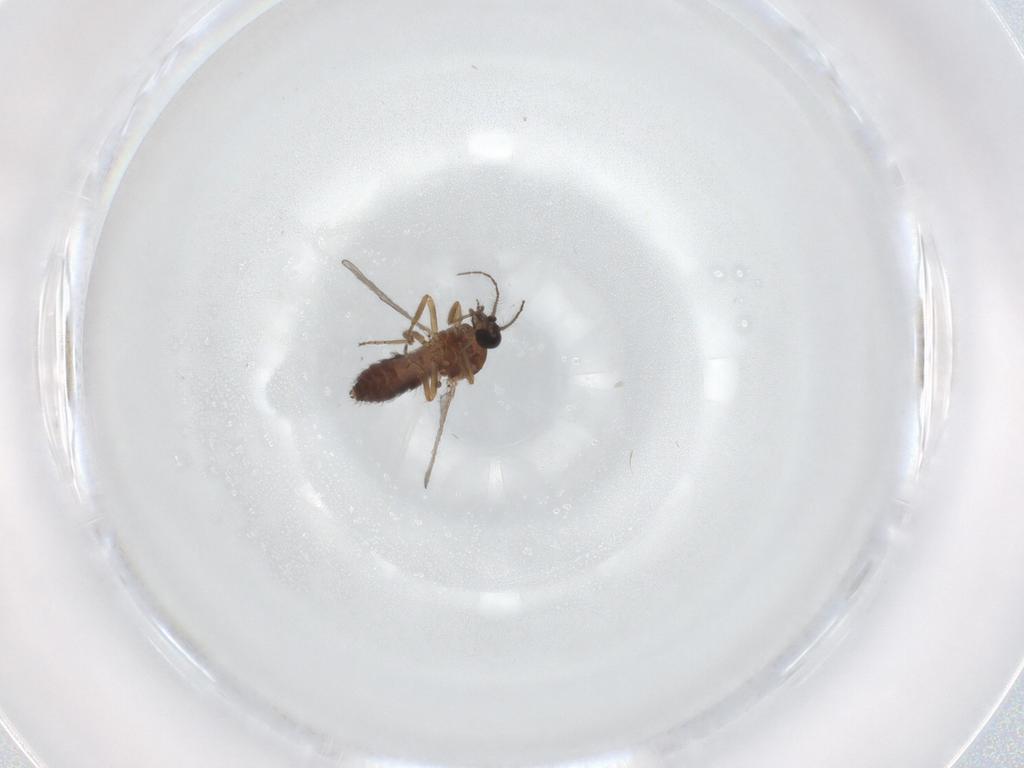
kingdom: Animalia
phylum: Arthropoda
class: Insecta
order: Diptera
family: Ceratopogonidae
